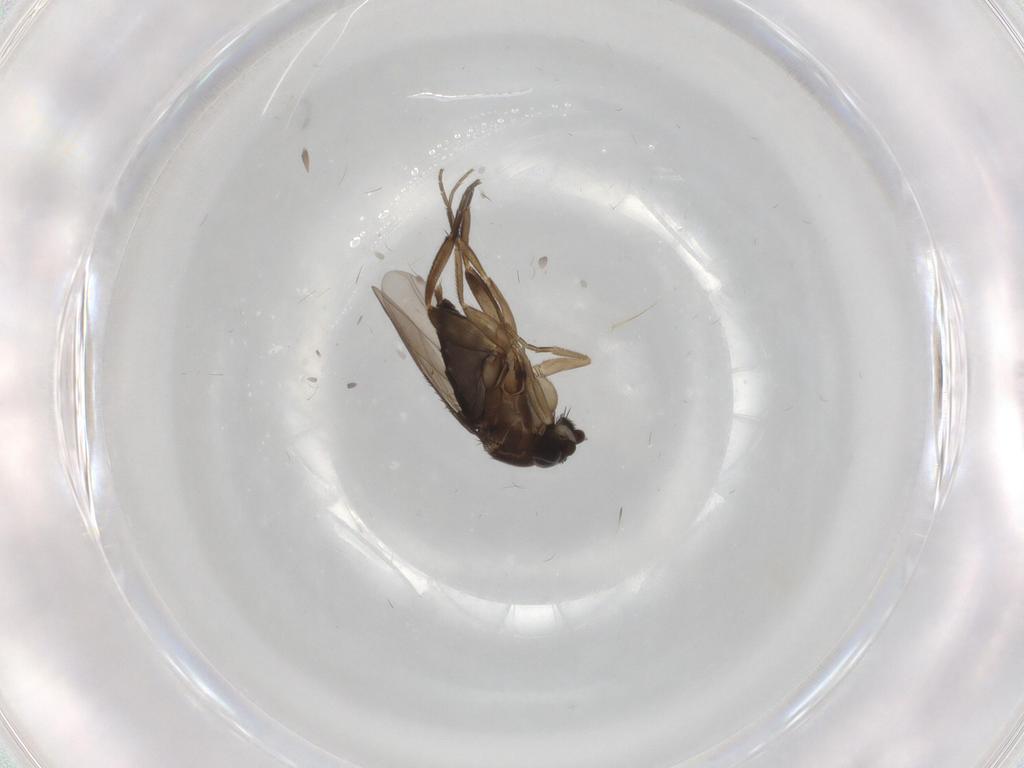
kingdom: Animalia
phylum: Arthropoda
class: Insecta
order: Diptera
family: Phoridae
